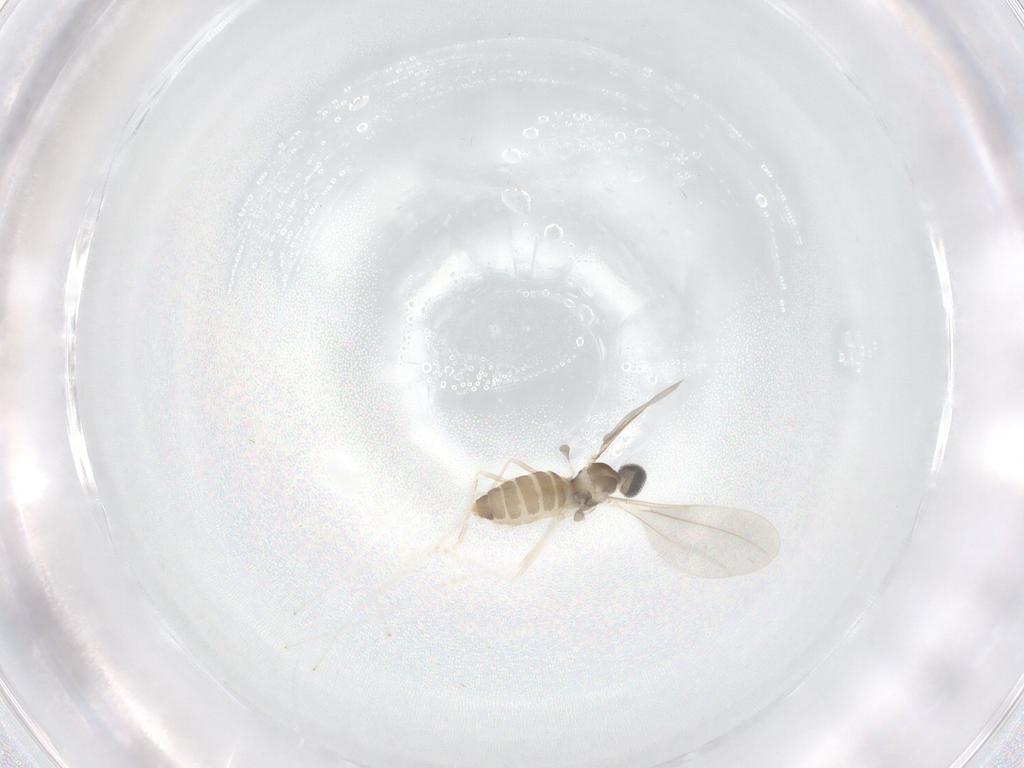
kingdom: Animalia
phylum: Arthropoda
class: Insecta
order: Diptera
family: Cecidomyiidae
